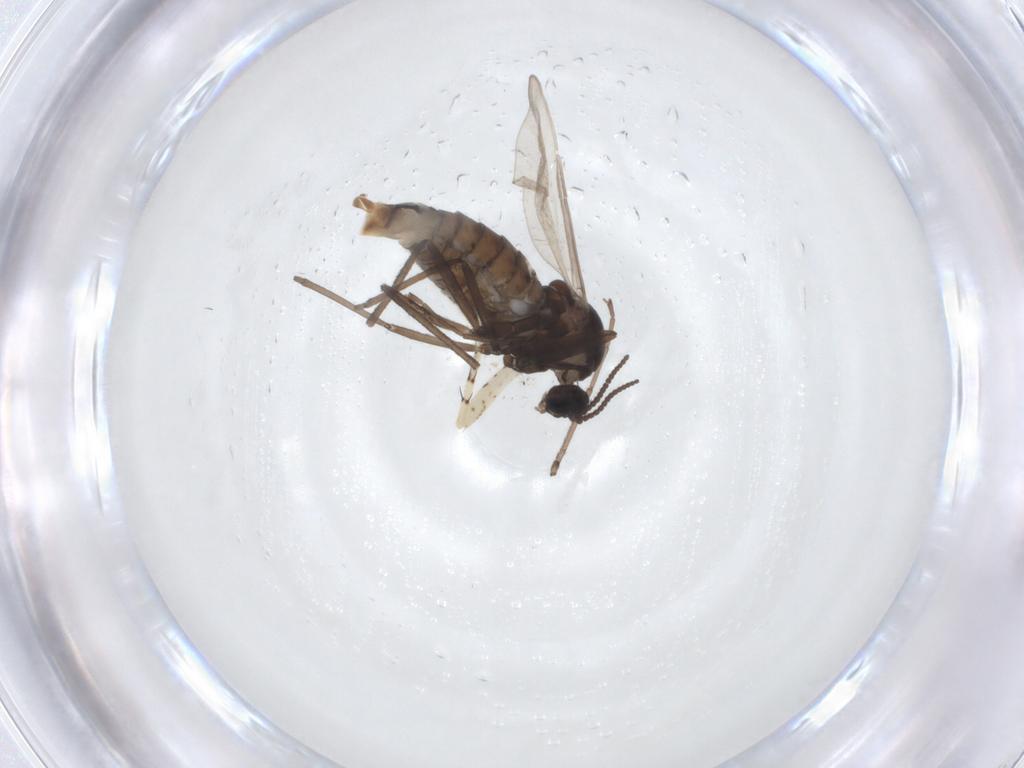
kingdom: Animalia
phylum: Arthropoda
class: Insecta
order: Diptera
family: Cecidomyiidae
